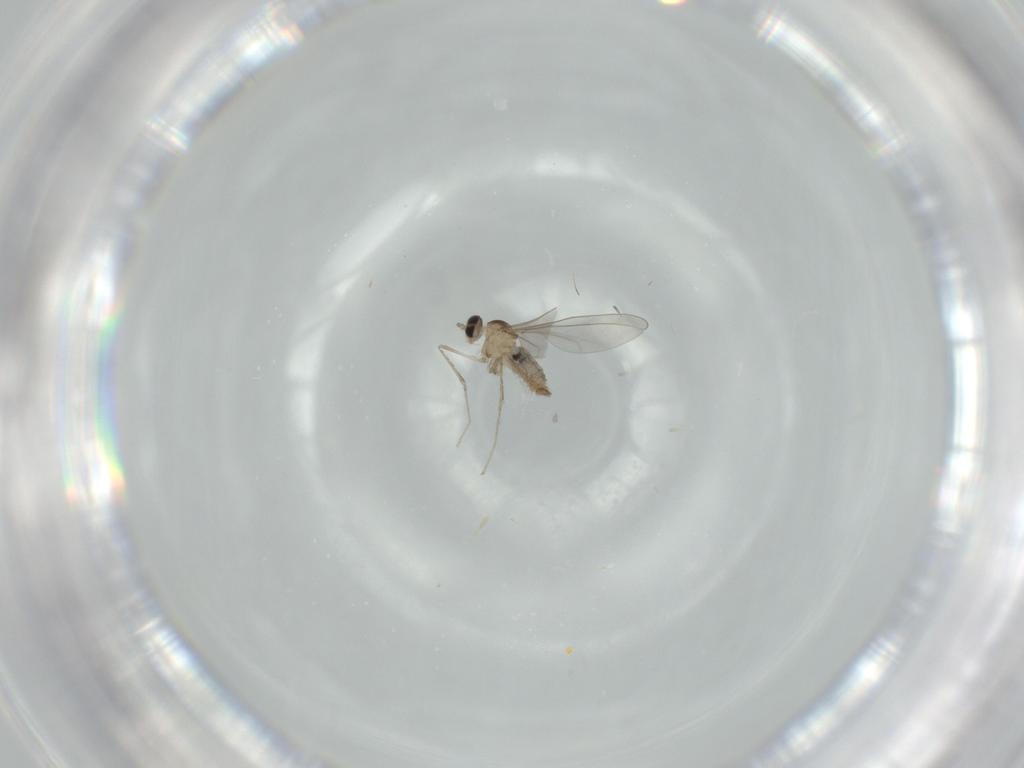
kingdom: Animalia
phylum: Arthropoda
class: Insecta
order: Diptera
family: Cecidomyiidae
